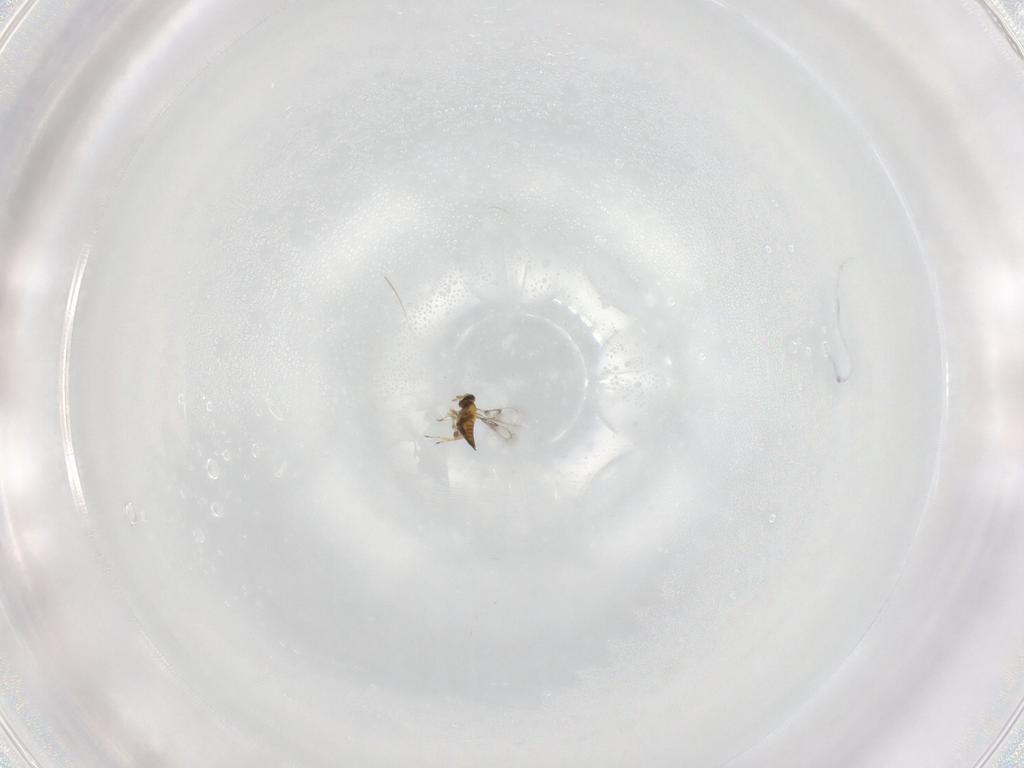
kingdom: Animalia
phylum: Arthropoda
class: Insecta
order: Hymenoptera
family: Trichogrammatidae
